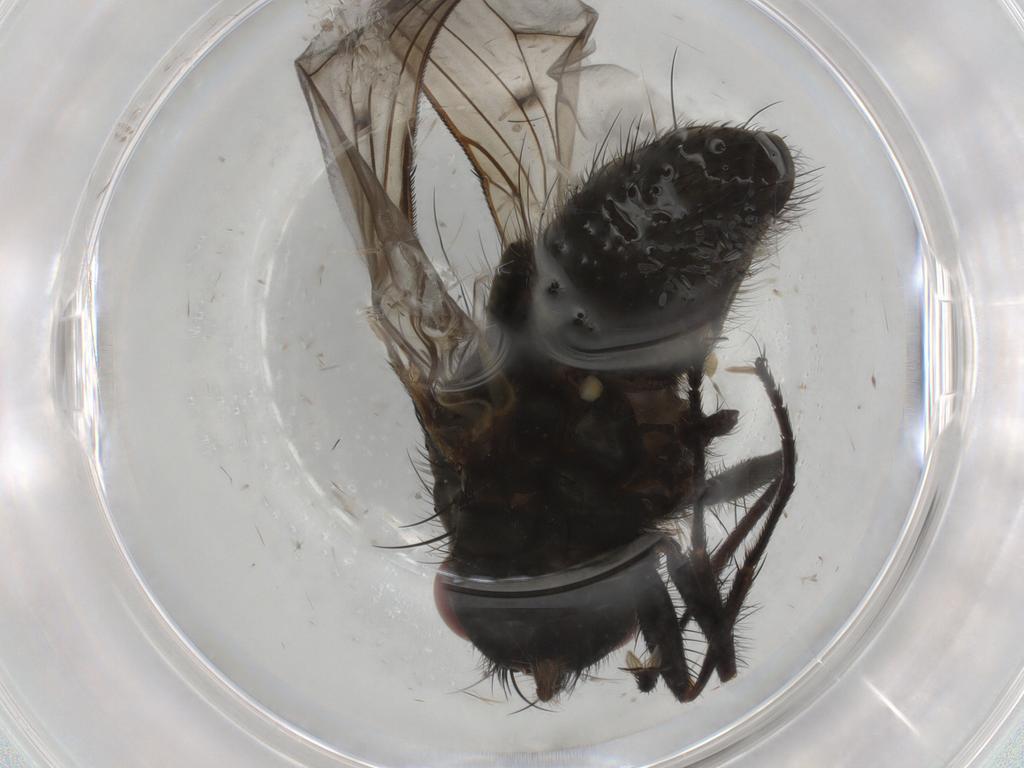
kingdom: Animalia
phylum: Arthropoda
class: Insecta
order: Diptera
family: Muscidae
